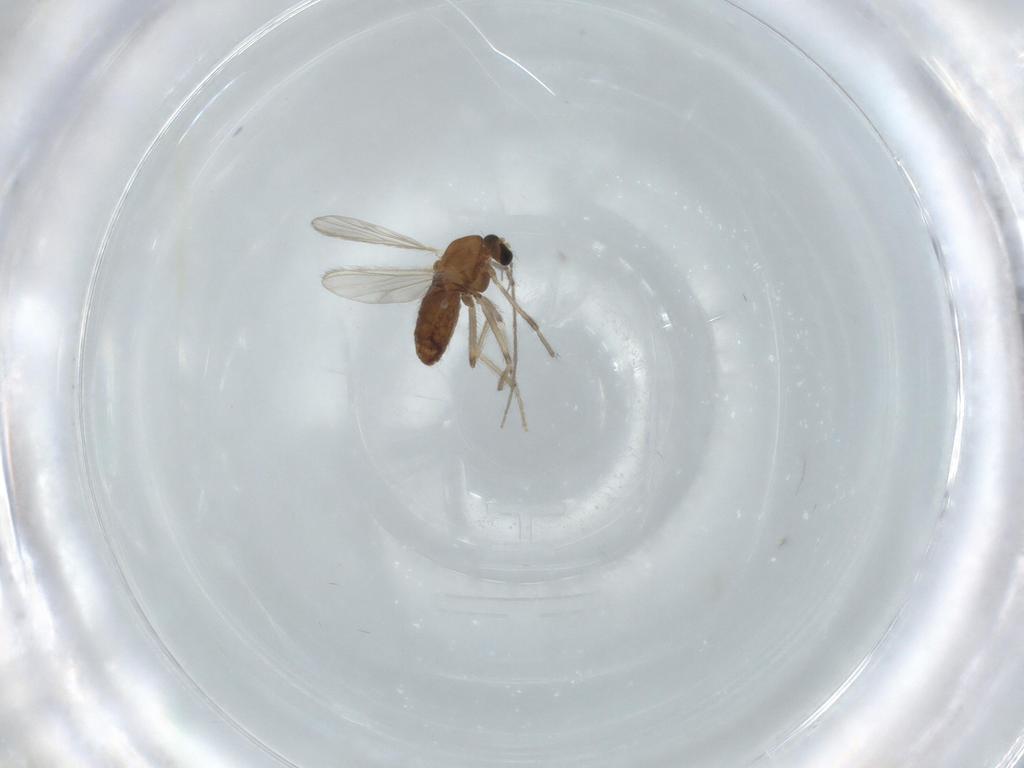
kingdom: Animalia
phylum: Arthropoda
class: Insecta
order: Diptera
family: Chironomidae
